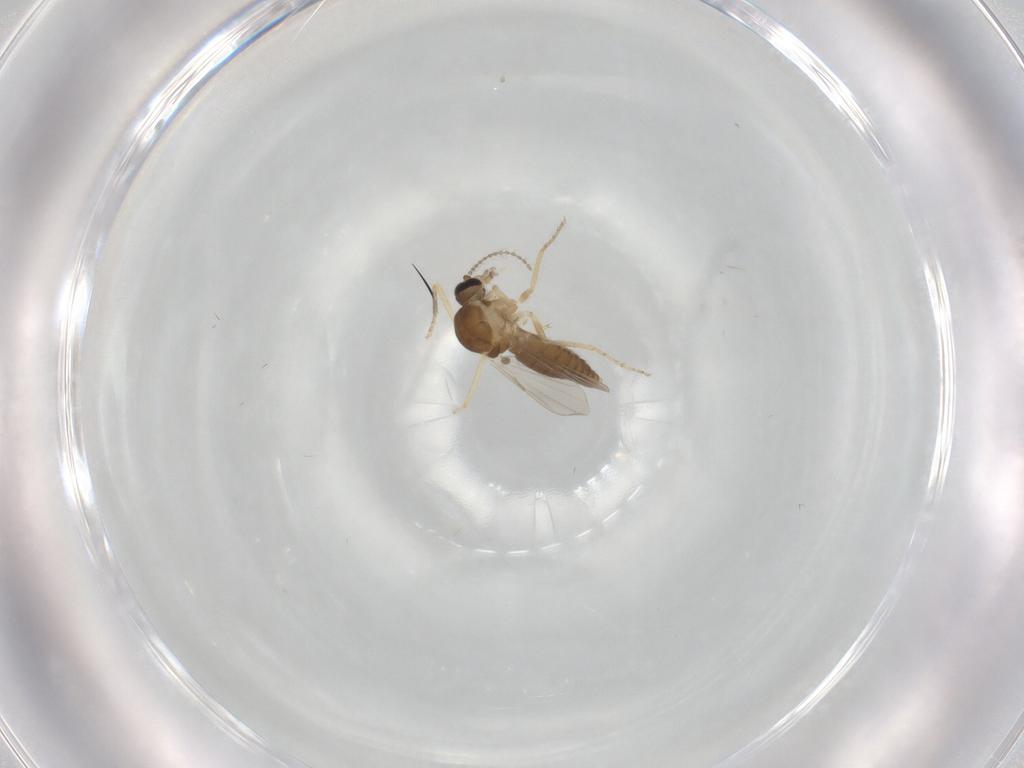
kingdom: Animalia
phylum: Arthropoda
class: Insecta
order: Diptera
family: Ceratopogonidae
